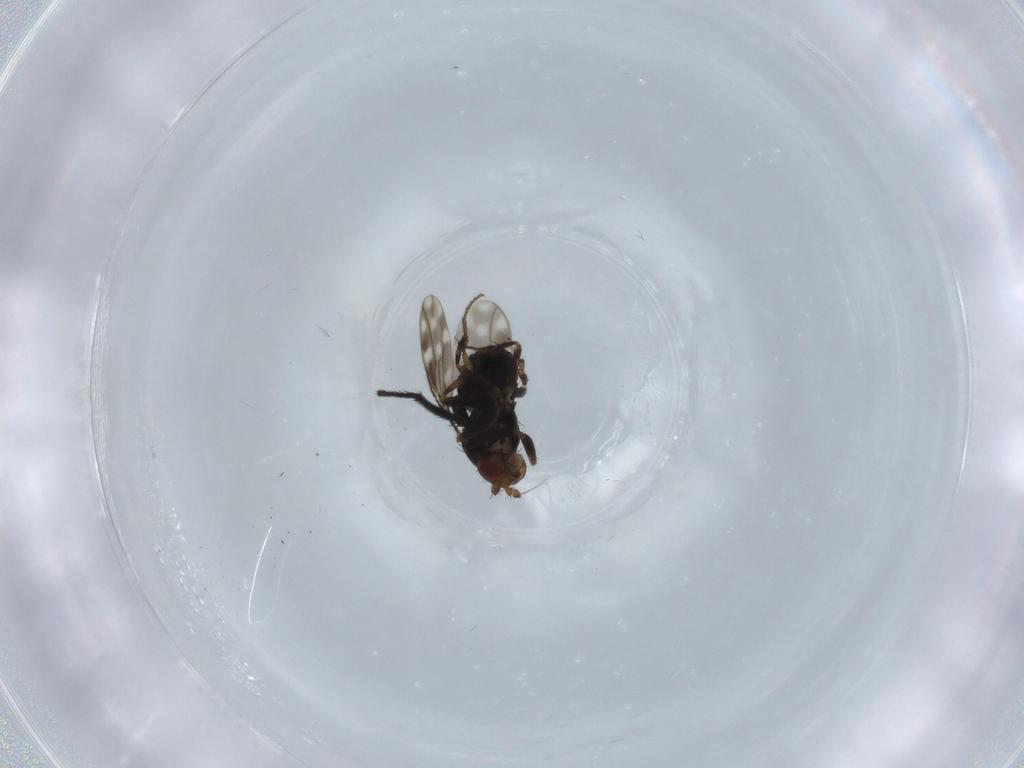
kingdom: Animalia
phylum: Arthropoda
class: Insecta
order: Diptera
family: Sphaeroceridae
